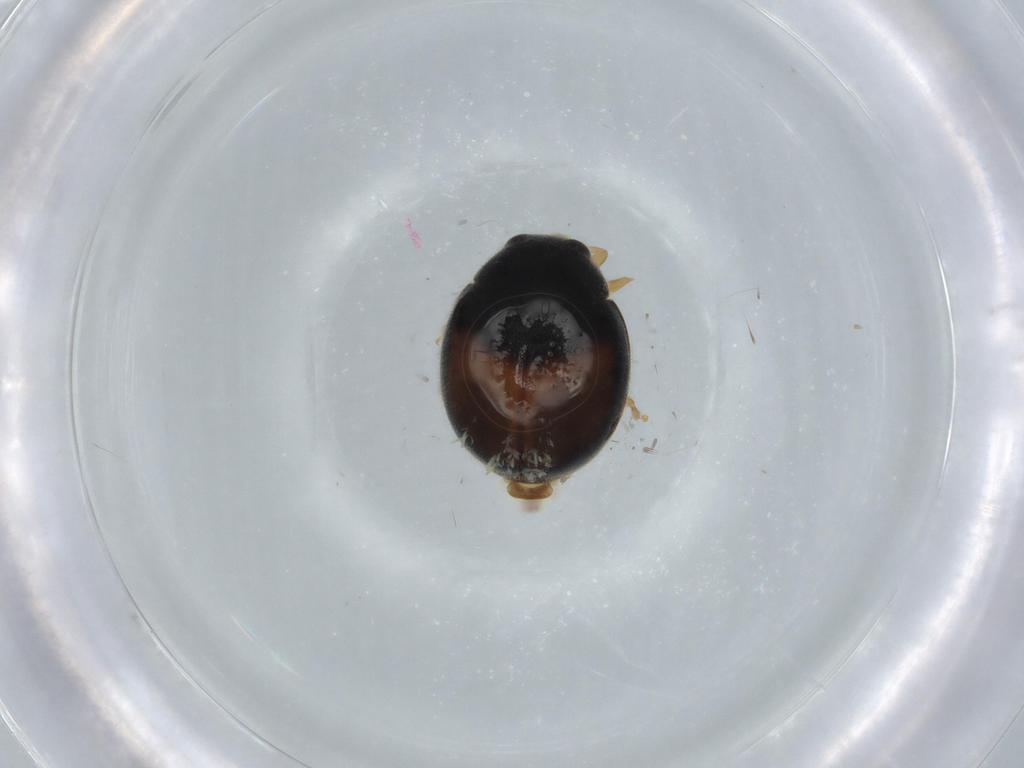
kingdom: Animalia
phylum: Arthropoda
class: Insecta
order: Coleoptera
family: Coccinellidae
